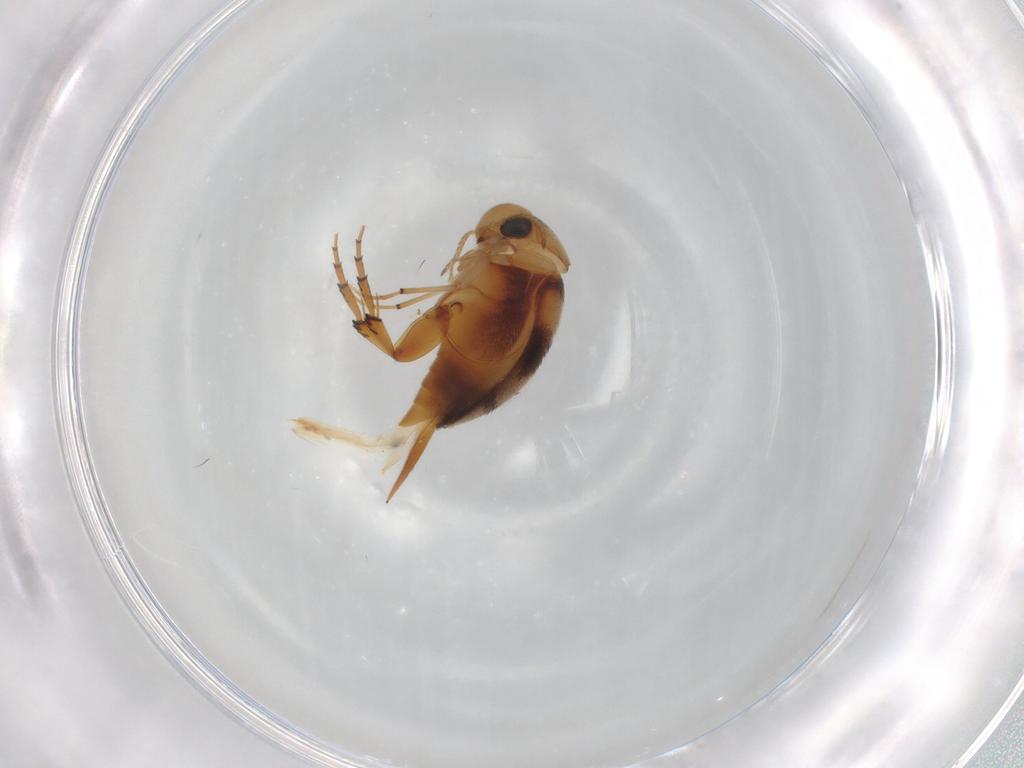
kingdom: Animalia
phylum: Arthropoda
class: Insecta
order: Coleoptera
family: Mordellidae
